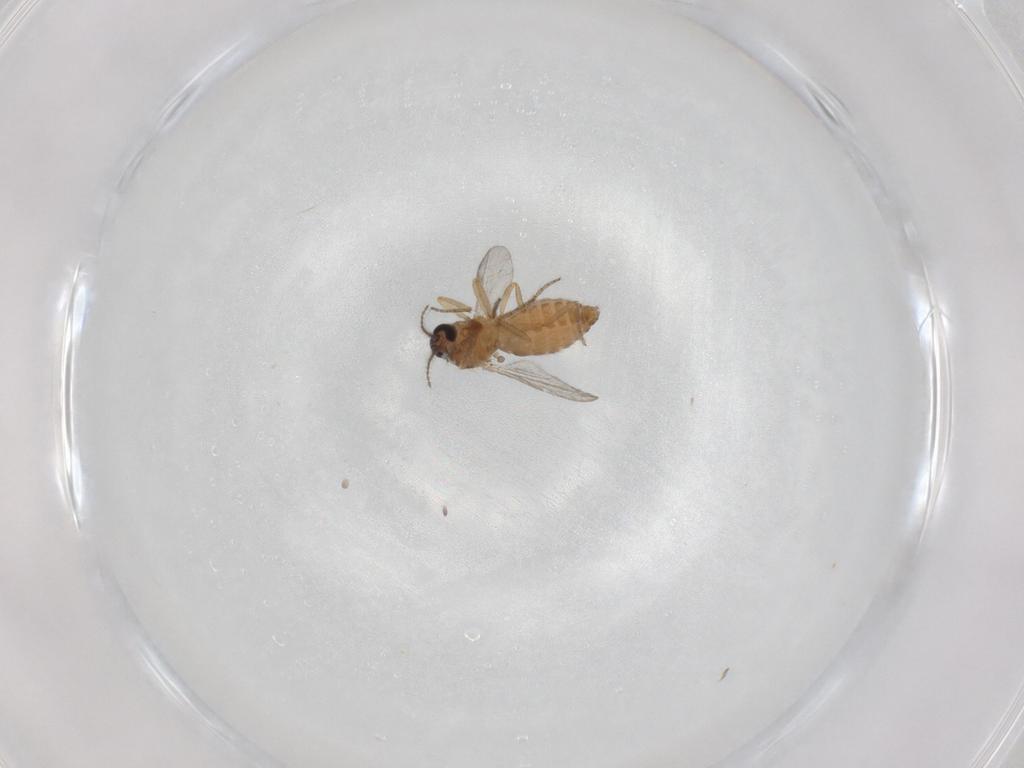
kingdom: Animalia
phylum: Arthropoda
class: Insecta
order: Diptera
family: Ceratopogonidae
